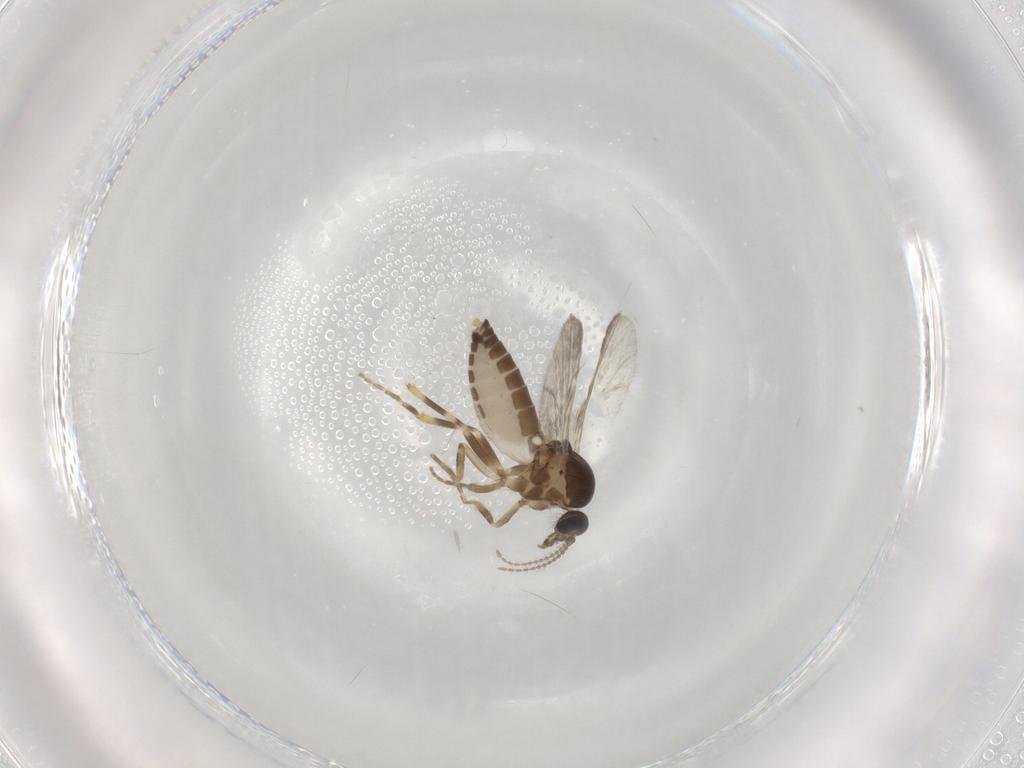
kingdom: Animalia
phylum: Arthropoda
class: Insecta
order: Diptera
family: Ceratopogonidae
